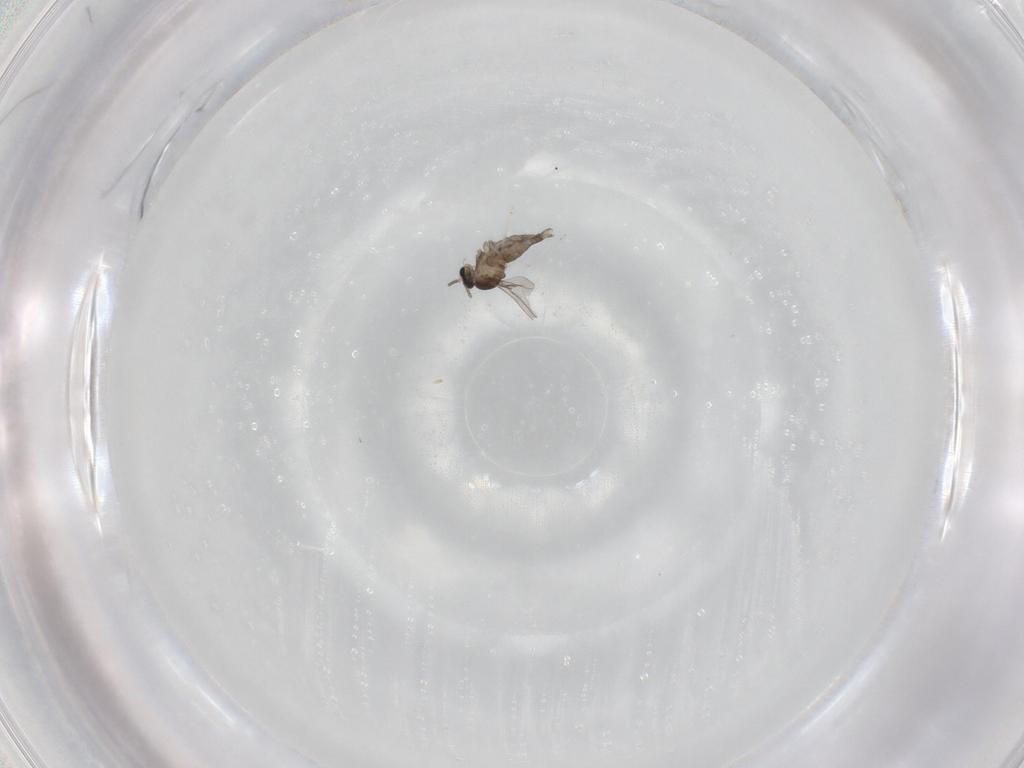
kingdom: Animalia
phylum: Arthropoda
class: Insecta
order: Diptera
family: Cecidomyiidae
